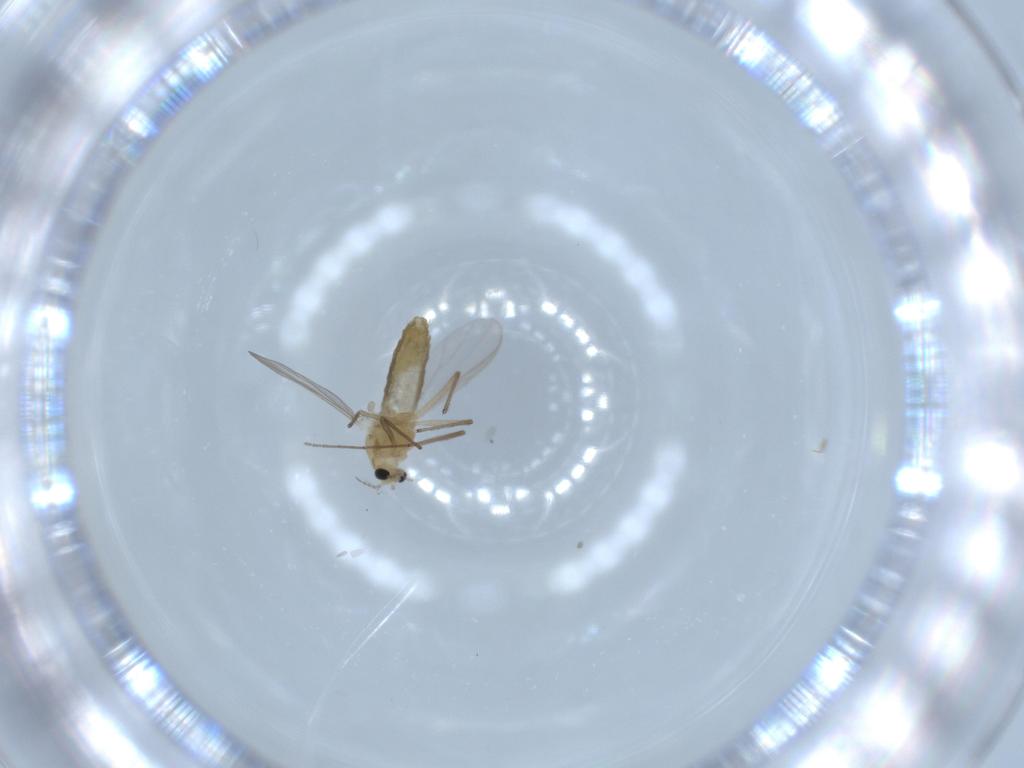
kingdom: Animalia
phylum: Arthropoda
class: Insecta
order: Diptera
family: Chironomidae
